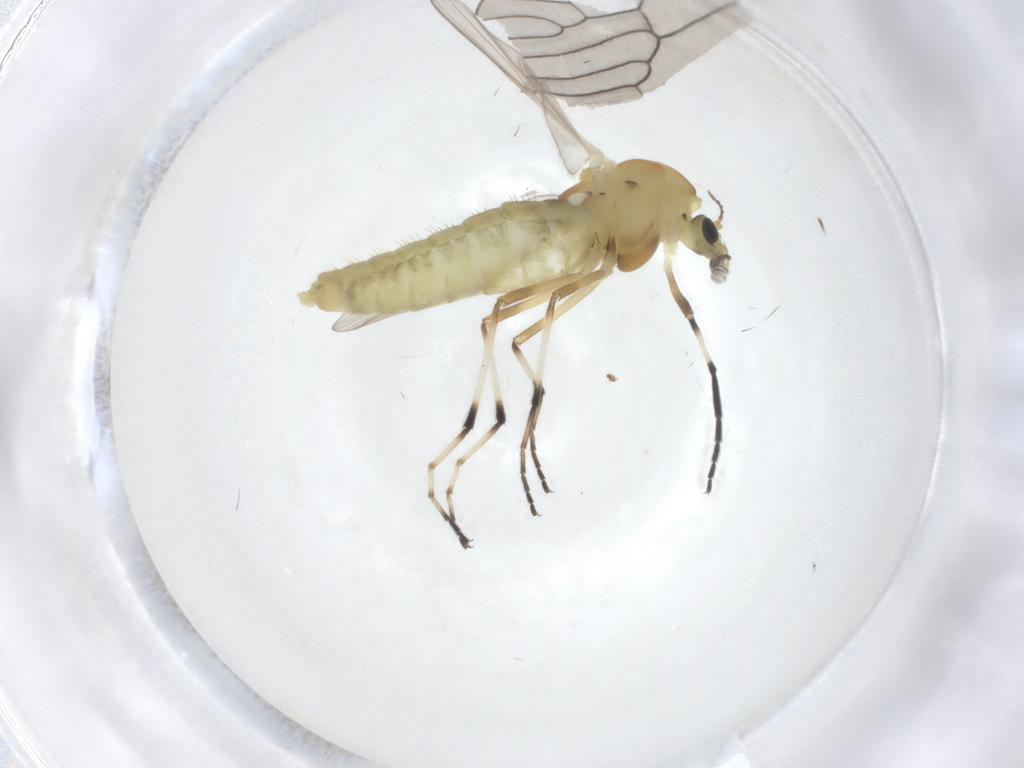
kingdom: Animalia
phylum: Arthropoda
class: Insecta
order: Diptera
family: Chironomidae
